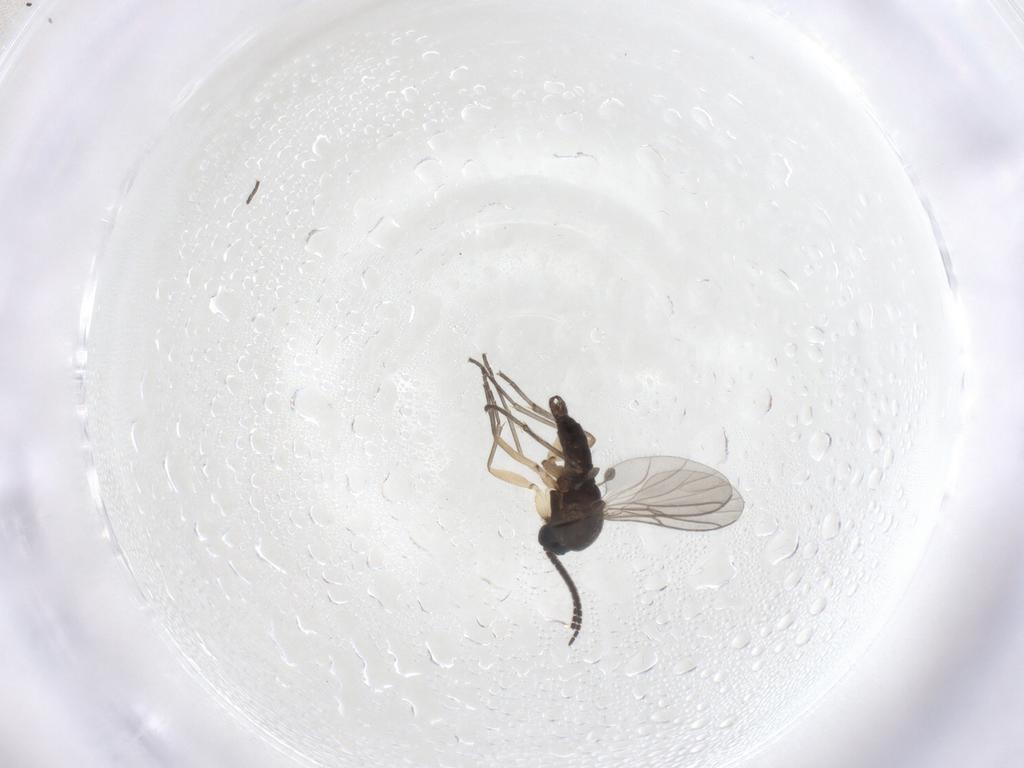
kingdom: Animalia
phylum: Arthropoda
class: Insecta
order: Diptera
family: Sciaridae
